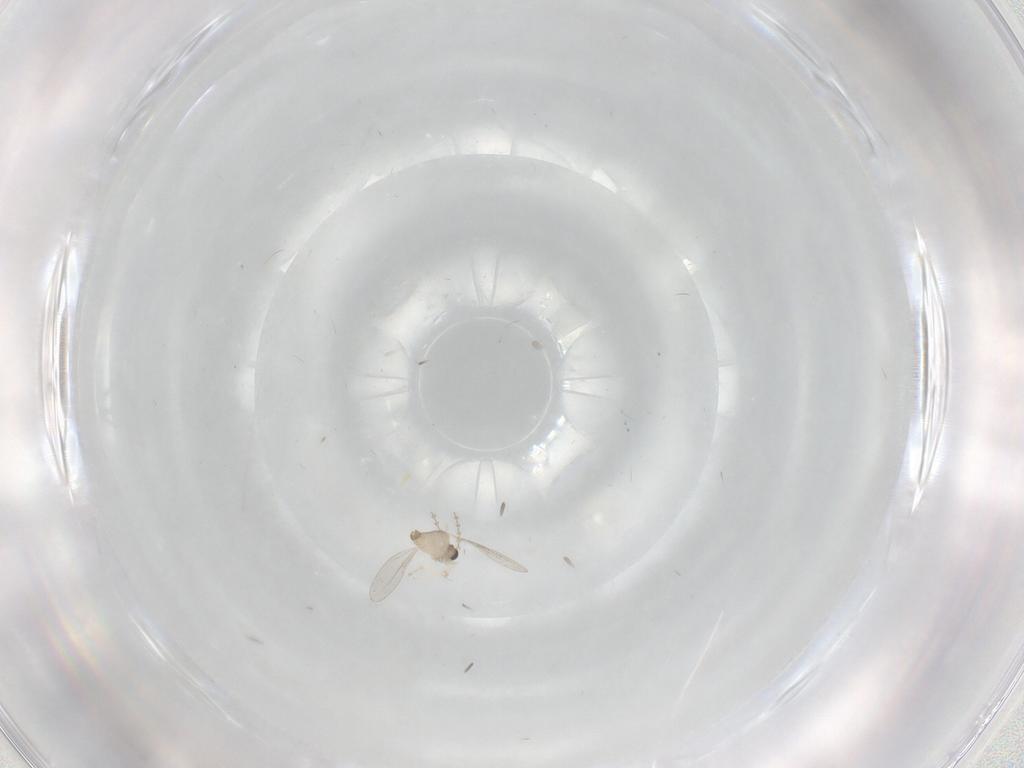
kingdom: Animalia
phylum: Arthropoda
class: Insecta
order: Diptera
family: Cecidomyiidae
